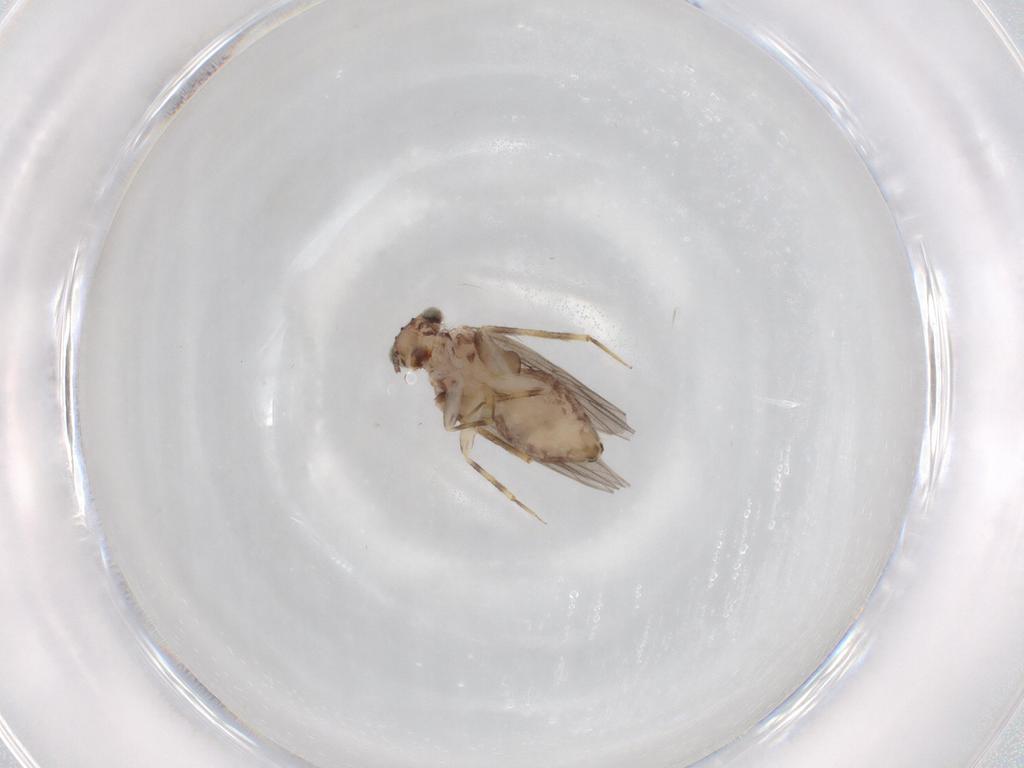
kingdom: Animalia
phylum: Arthropoda
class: Insecta
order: Psocodea
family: Lepidopsocidae
